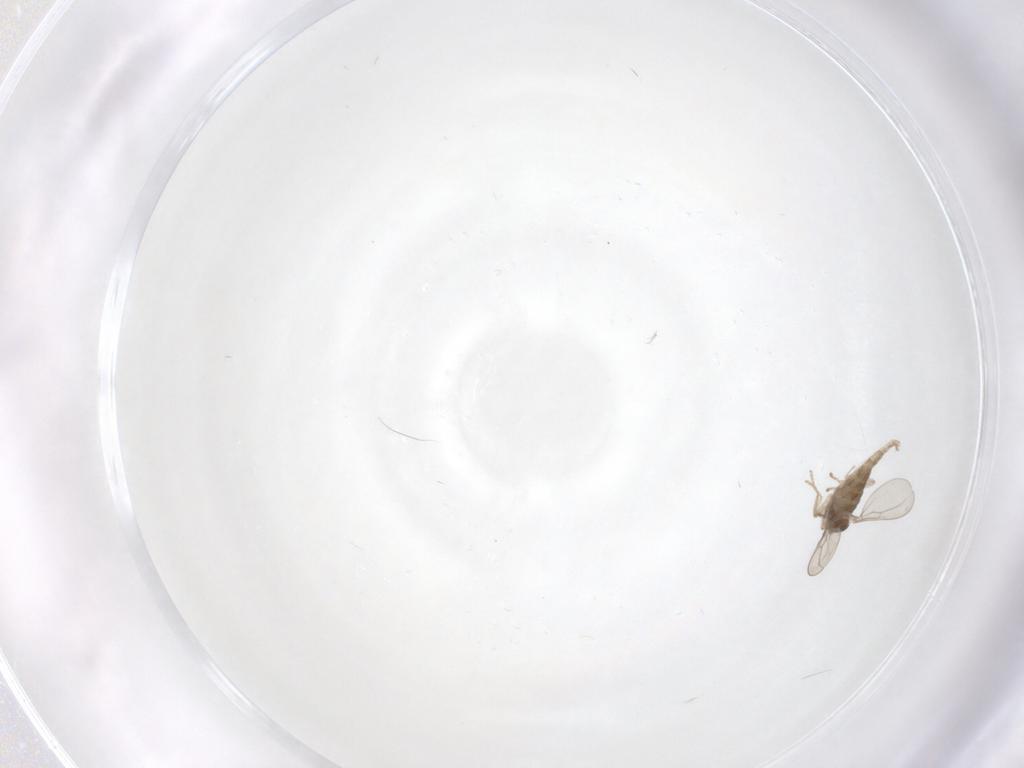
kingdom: Animalia
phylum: Arthropoda
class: Insecta
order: Diptera
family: Cecidomyiidae
